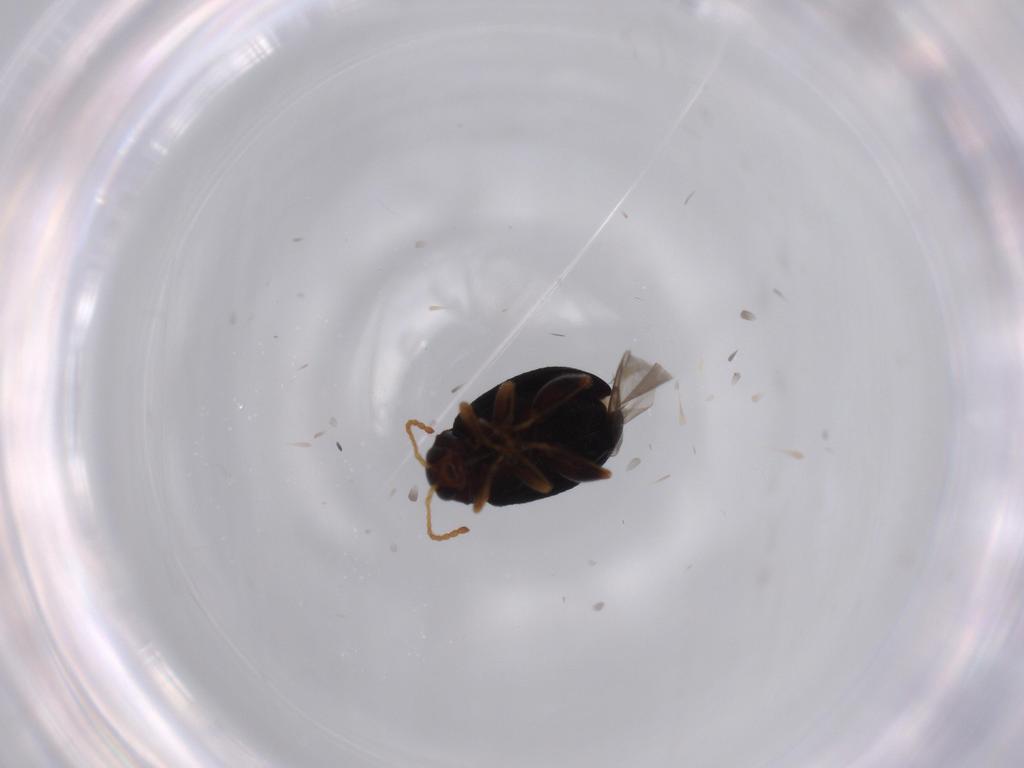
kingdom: Animalia
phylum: Arthropoda
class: Insecta
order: Coleoptera
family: Chrysomelidae
